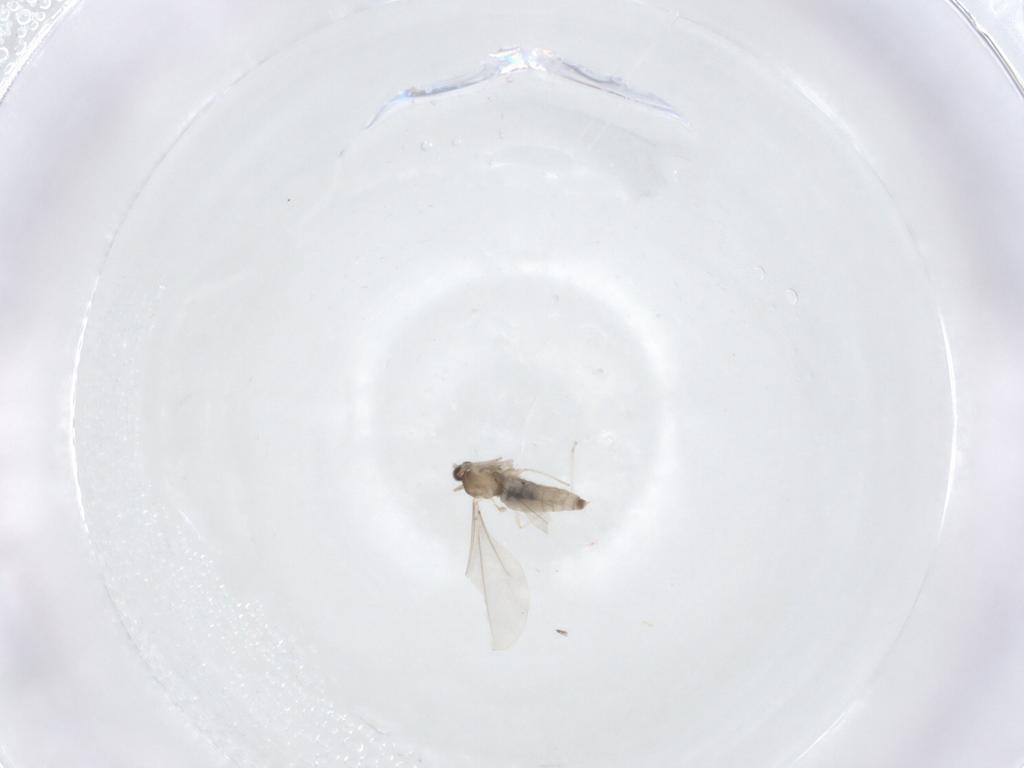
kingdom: Animalia
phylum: Arthropoda
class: Insecta
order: Diptera
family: Cecidomyiidae
